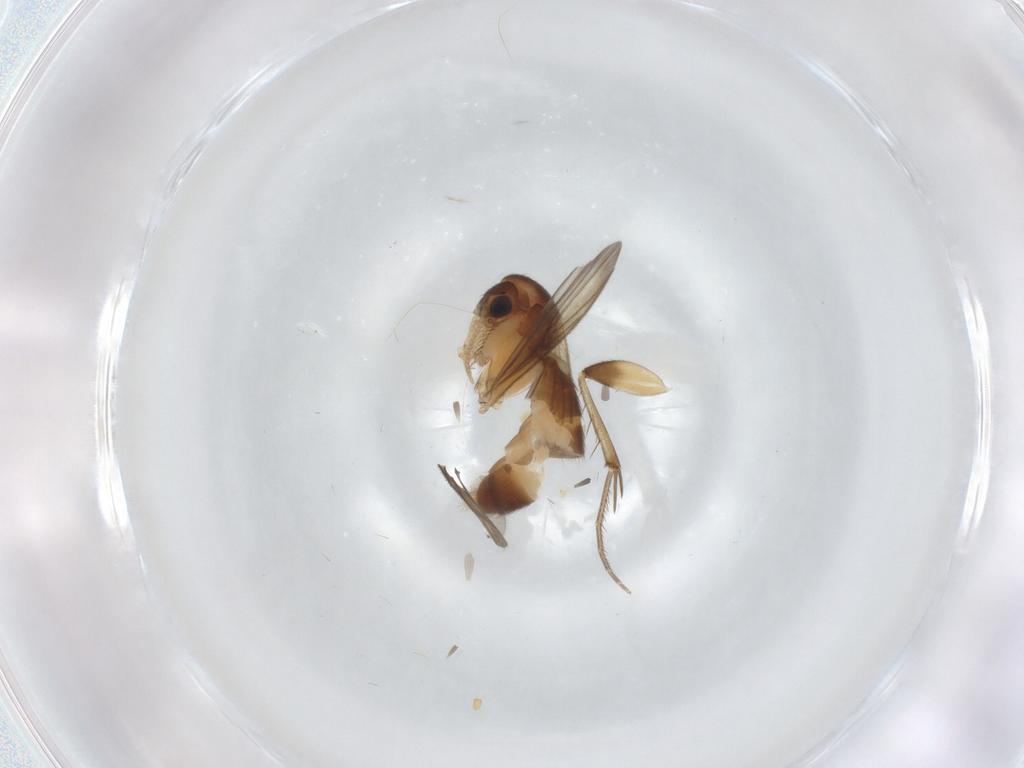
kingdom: Animalia
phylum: Arthropoda
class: Insecta
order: Diptera
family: Mycetophilidae
